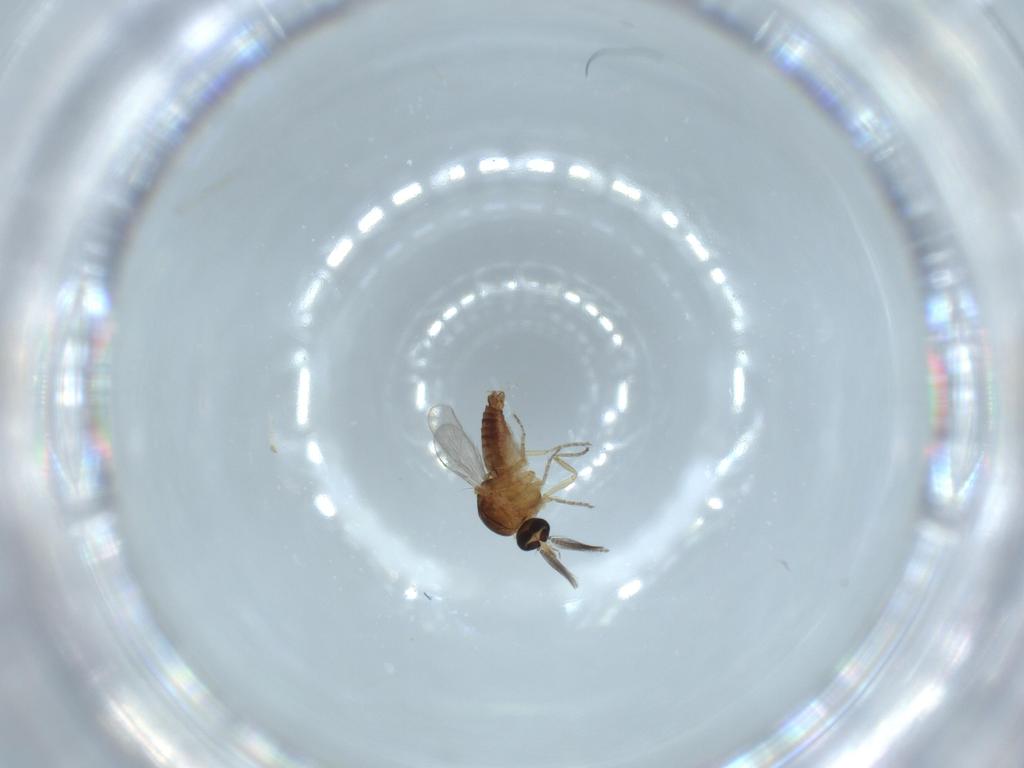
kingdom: Animalia
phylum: Arthropoda
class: Insecta
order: Diptera
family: Ceratopogonidae
